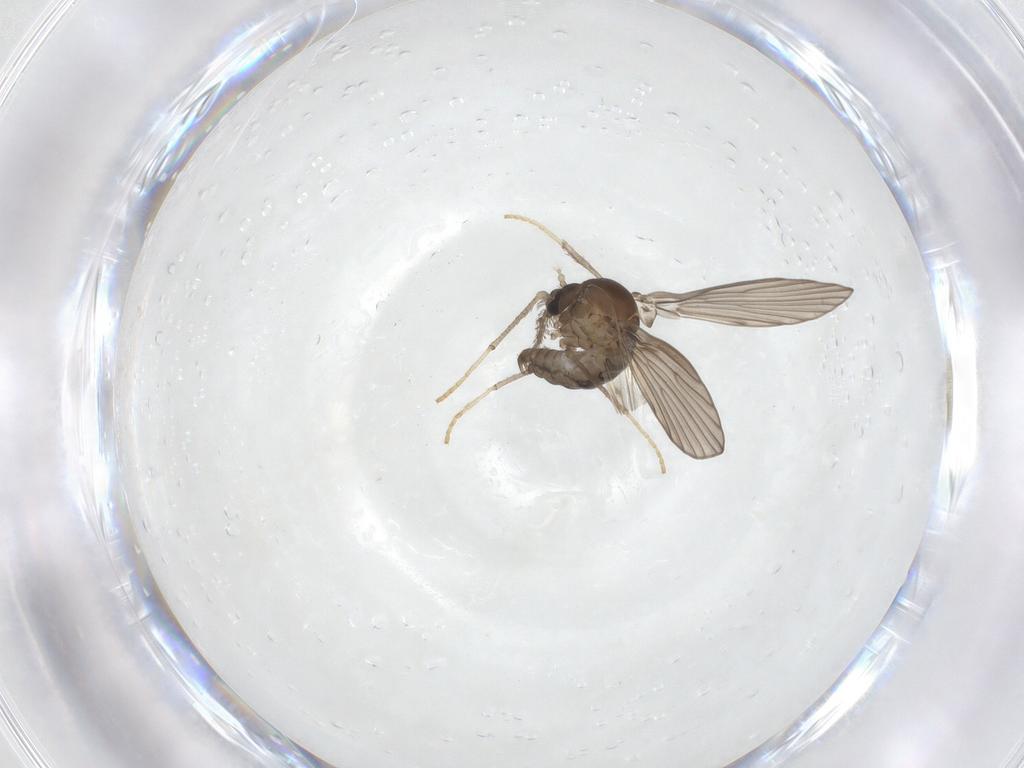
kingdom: Animalia
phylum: Arthropoda
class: Insecta
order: Diptera
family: Psychodidae
